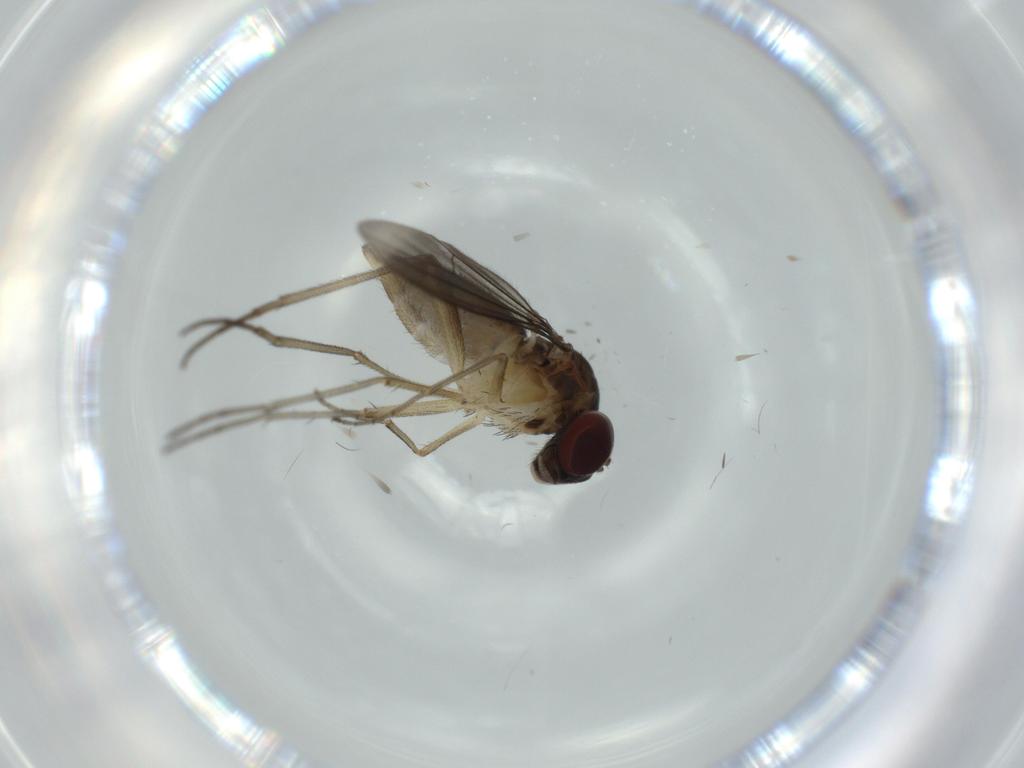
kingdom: Animalia
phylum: Arthropoda
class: Insecta
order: Diptera
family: Dolichopodidae
